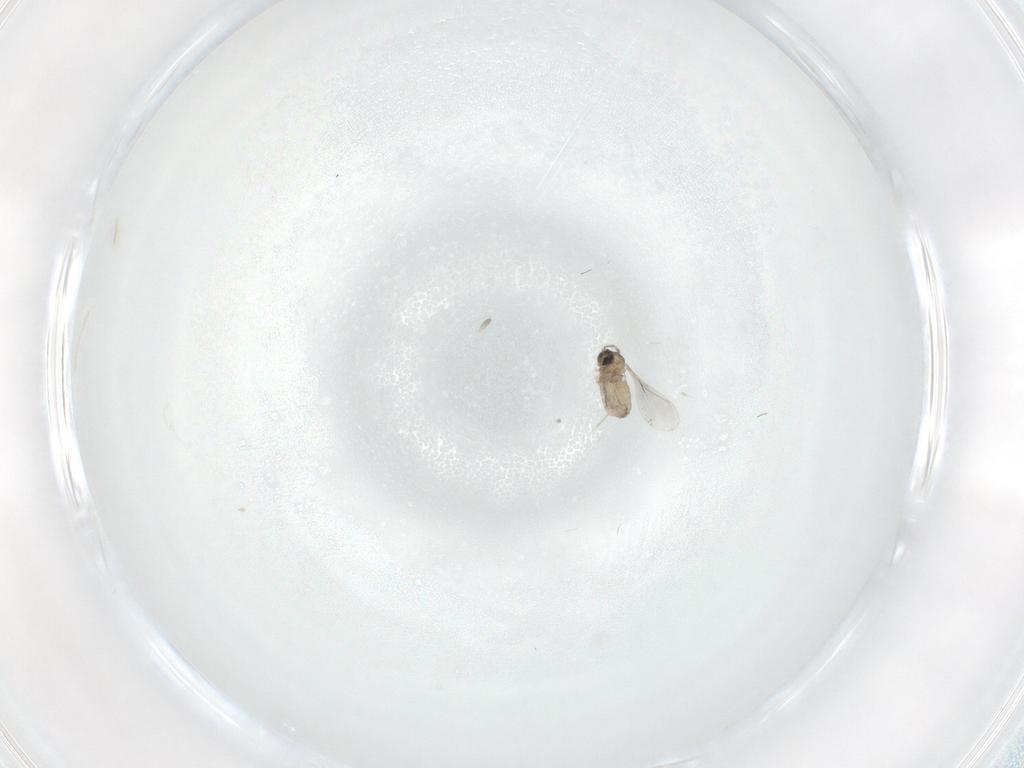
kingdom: Animalia
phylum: Arthropoda
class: Insecta
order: Diptera
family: Cecidomyiidae
